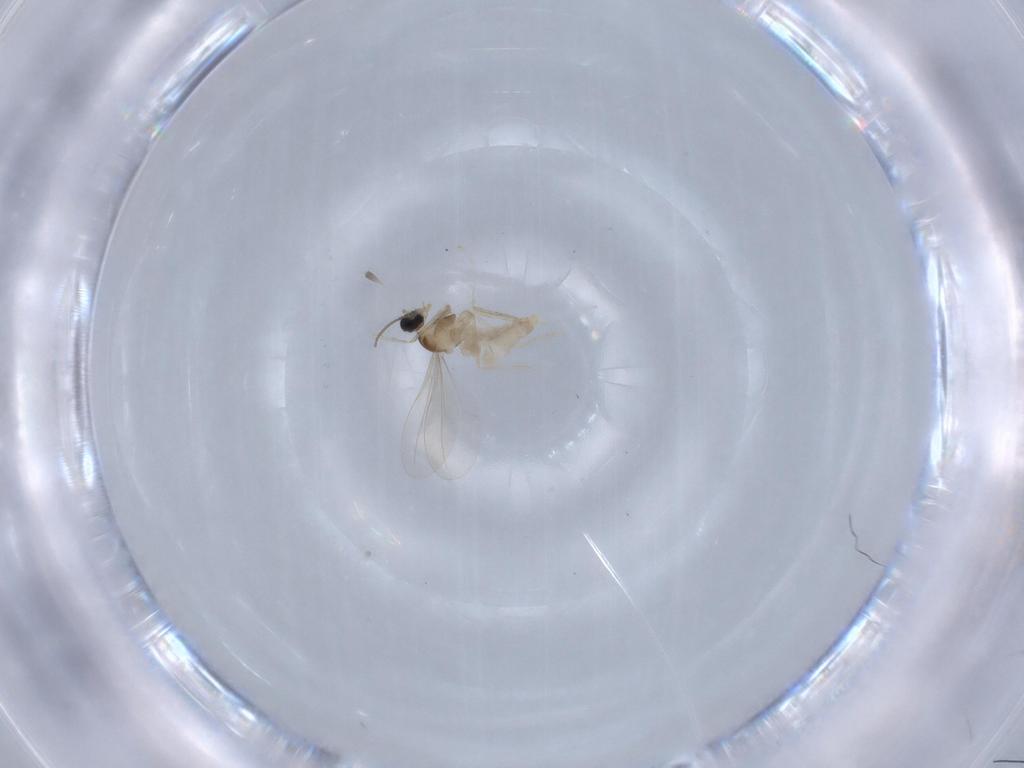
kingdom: Animalia
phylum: Arthropoda
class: Insecta
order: Diptera
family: Cecidomyiidae
